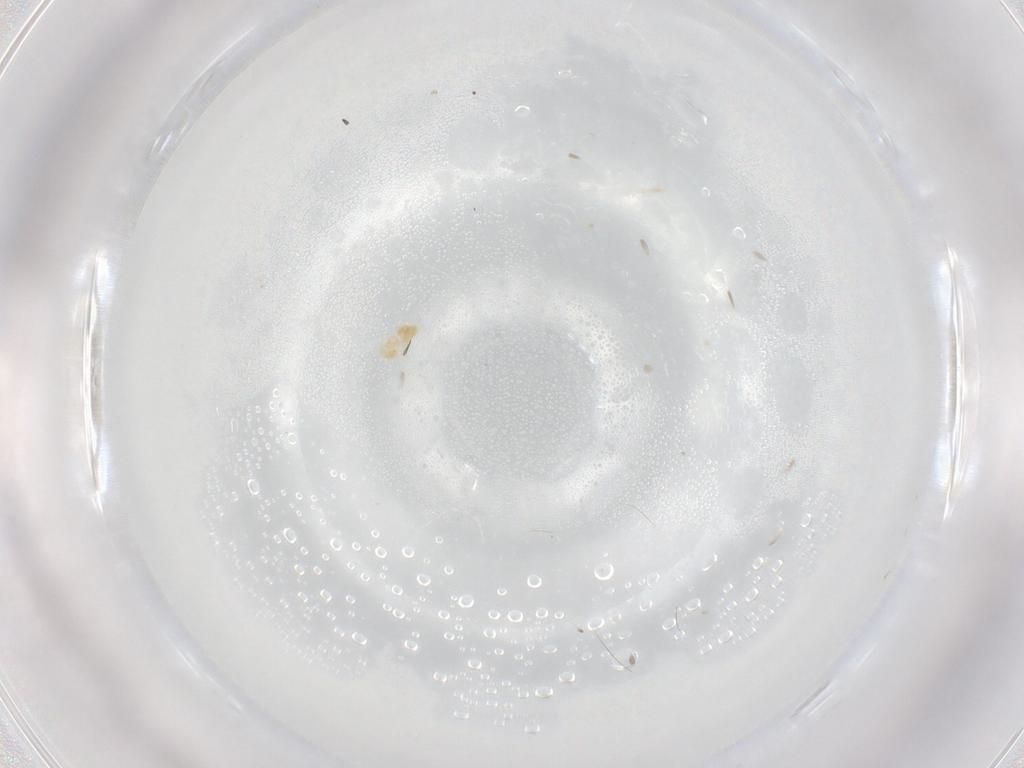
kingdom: Animalia
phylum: Arthropoda
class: Arachnida
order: Trombidiformes
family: Eupodidae
